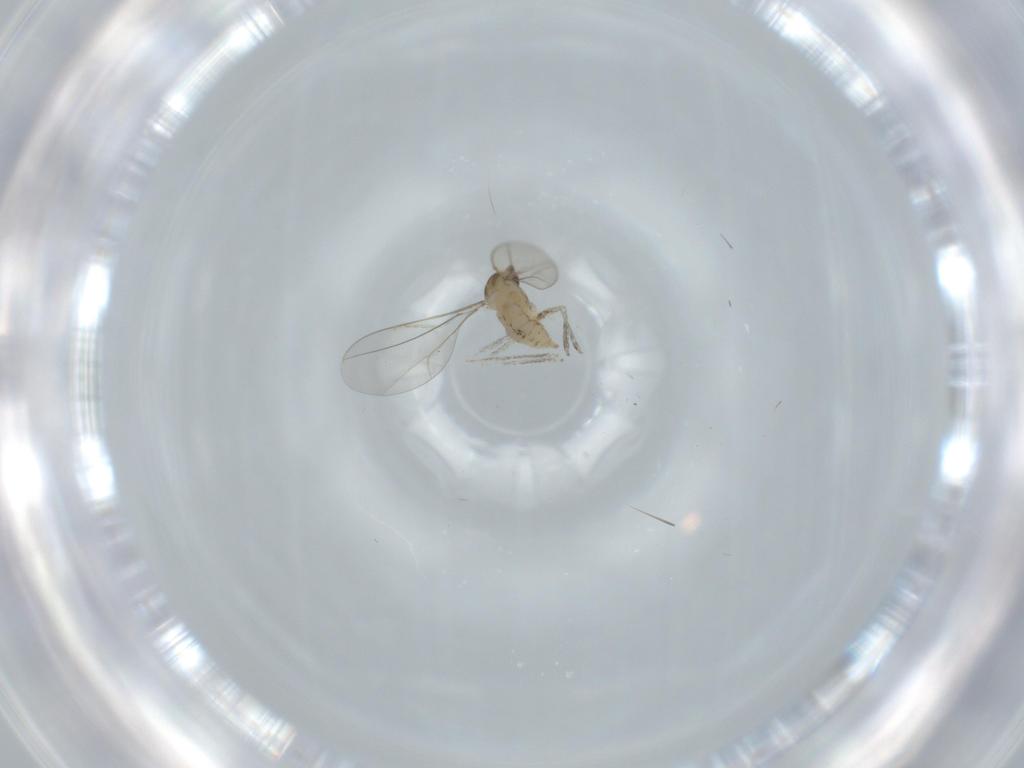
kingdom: Animalia
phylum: Arthropoda
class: Insecta
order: Diptera
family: Cecidomyiidae
